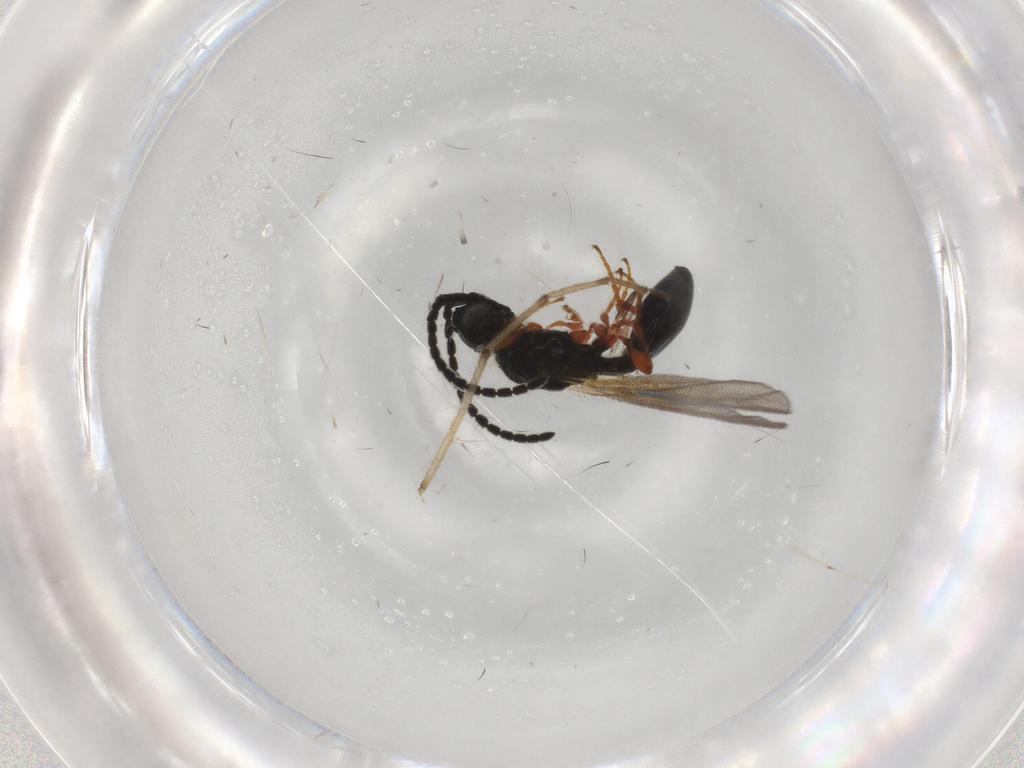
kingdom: Animalia
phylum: Arthropoda
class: Insecta
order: Hymenoptera
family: Diapriidae
